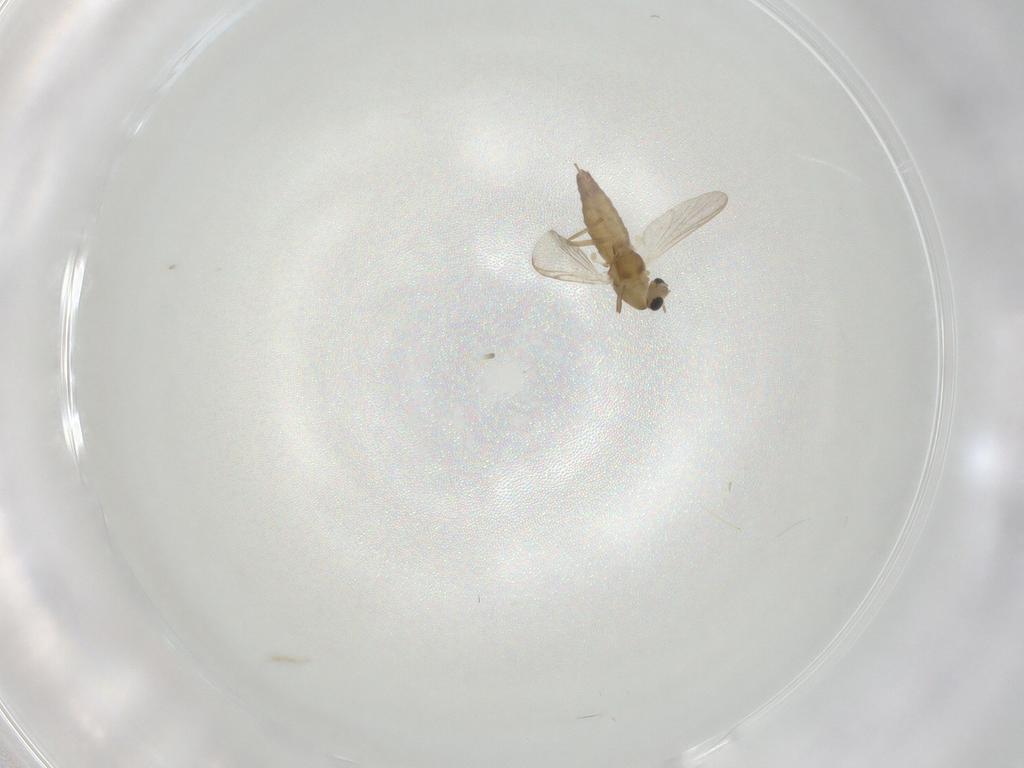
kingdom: Animalia
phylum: Arthropoda
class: Insecta
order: Diptera
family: Chironomidae
